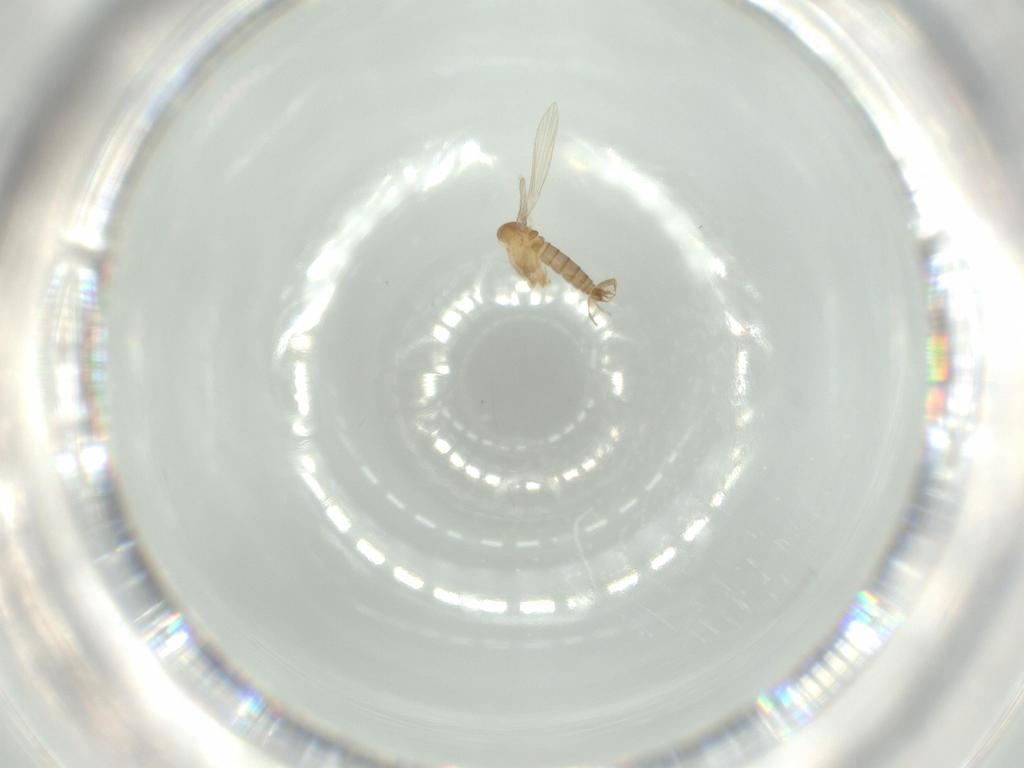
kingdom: Animalia
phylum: Arthropoda
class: Insecta
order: Diptera
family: Psychodidae
